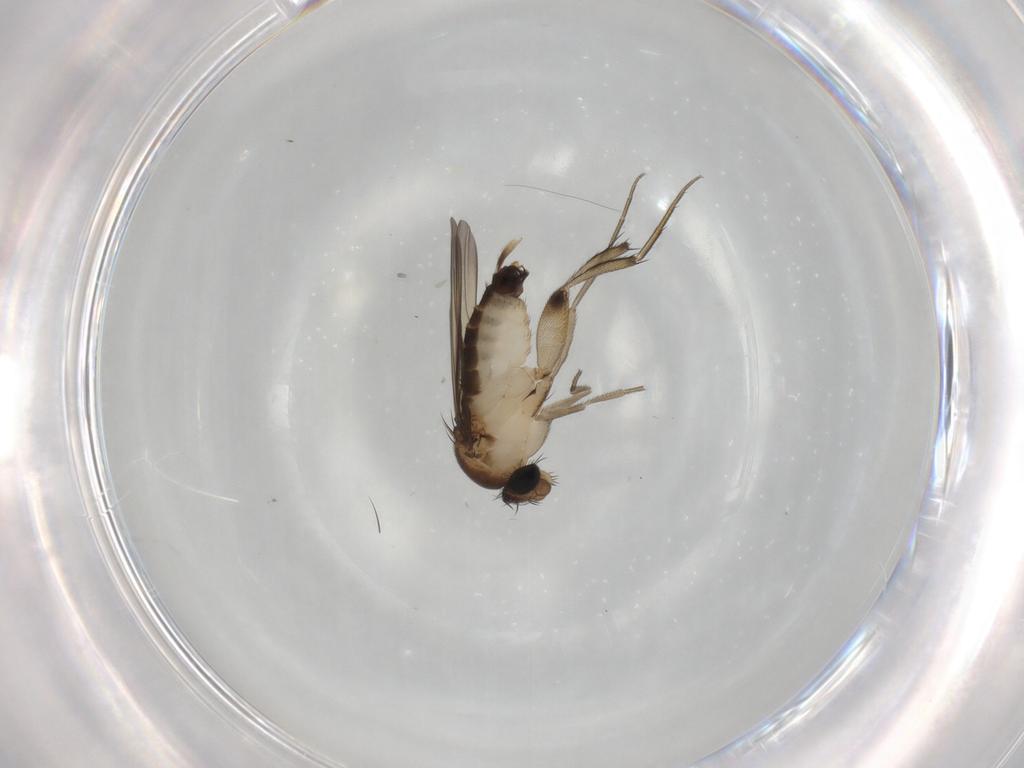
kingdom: Animalia
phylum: Arthropoda
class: Insecta
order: Diptera
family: Phoridae
